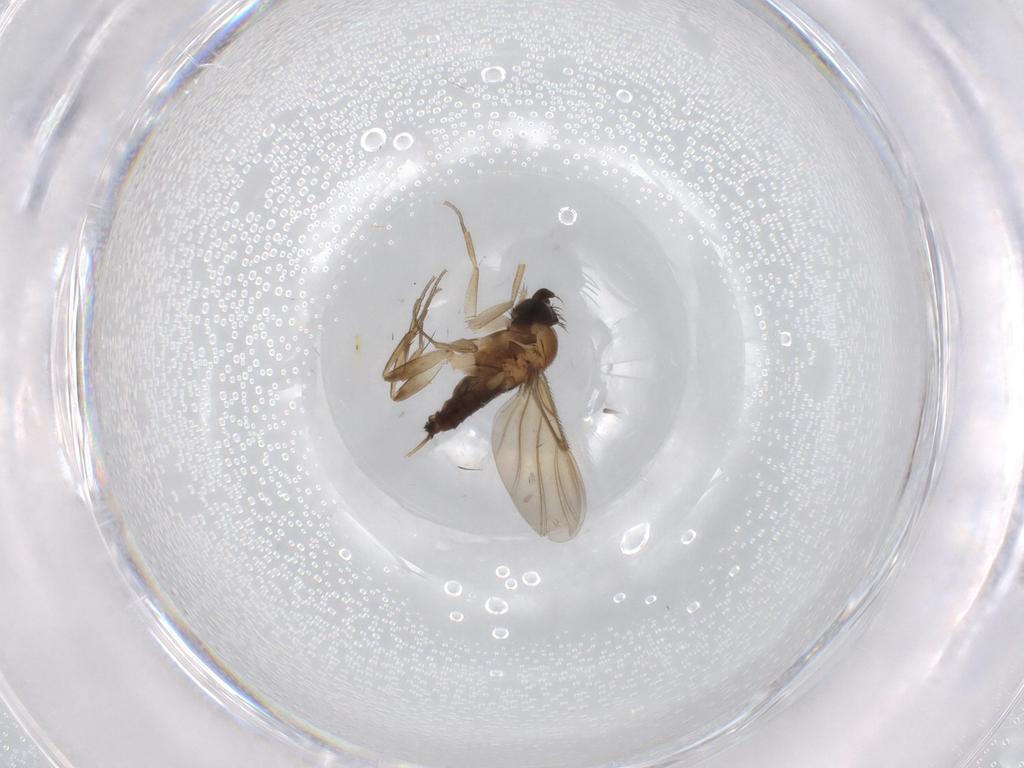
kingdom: Animalia
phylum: Arthropoda
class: Insecta
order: Diptera
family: Phoridae
